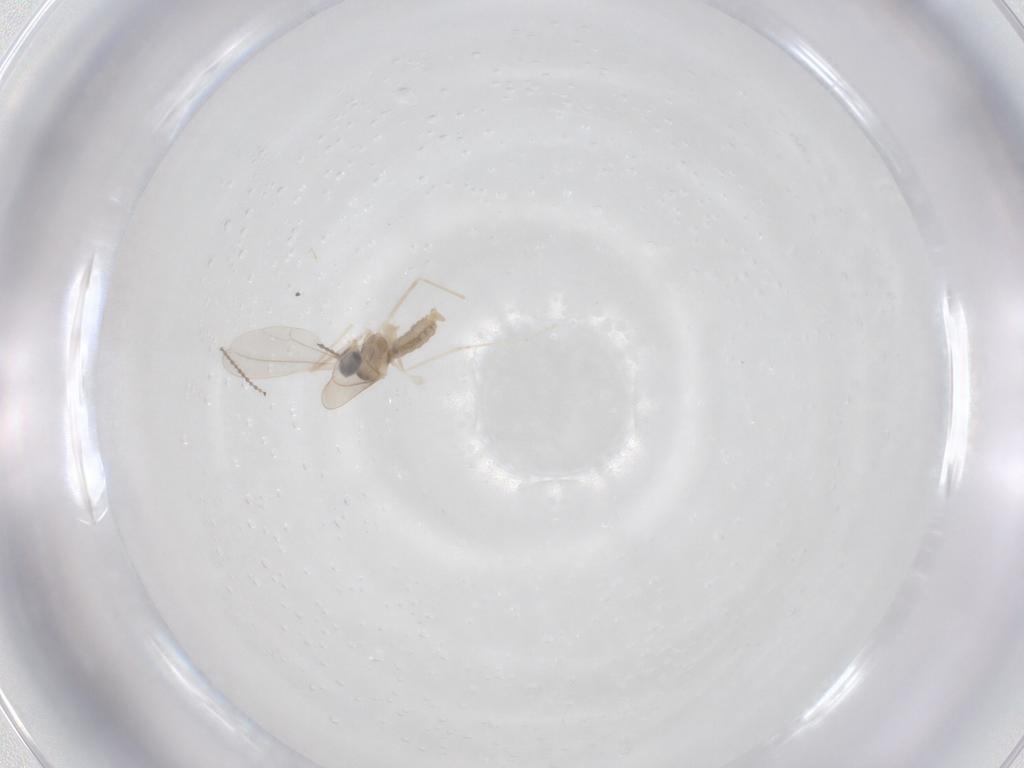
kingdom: Animalia
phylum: Arthropoda
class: Insecta
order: Diptera
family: Cecidomyiidae
